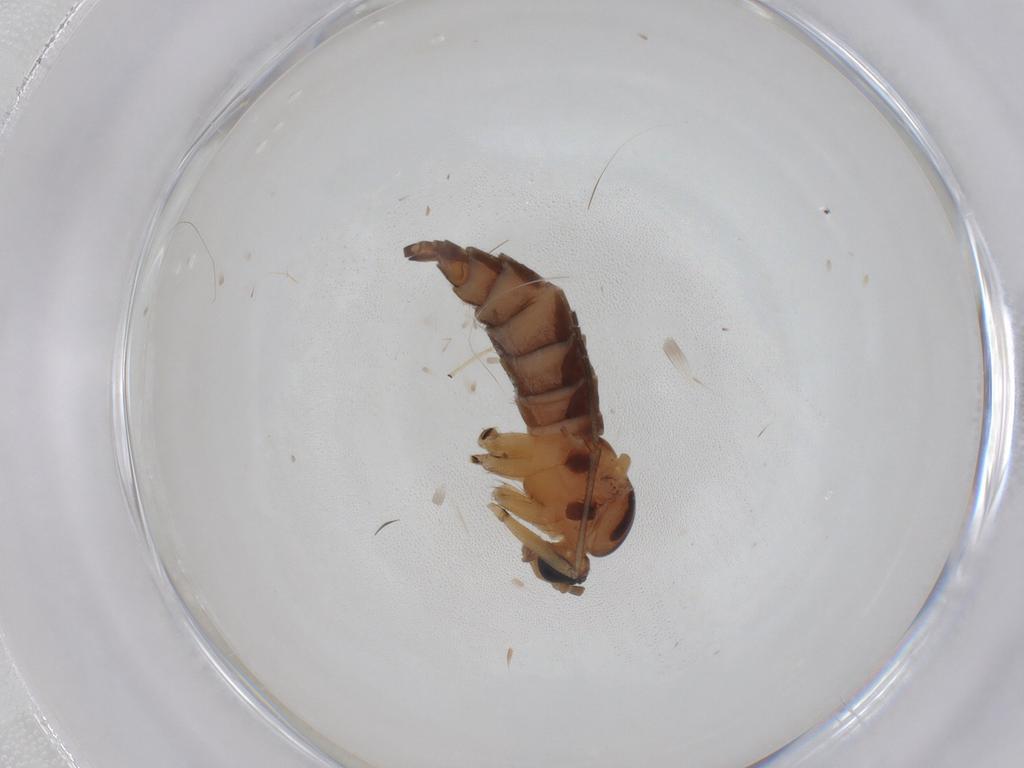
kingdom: Animalia
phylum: Arthropoda
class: Insecta
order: Diptera
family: Sciaridae
